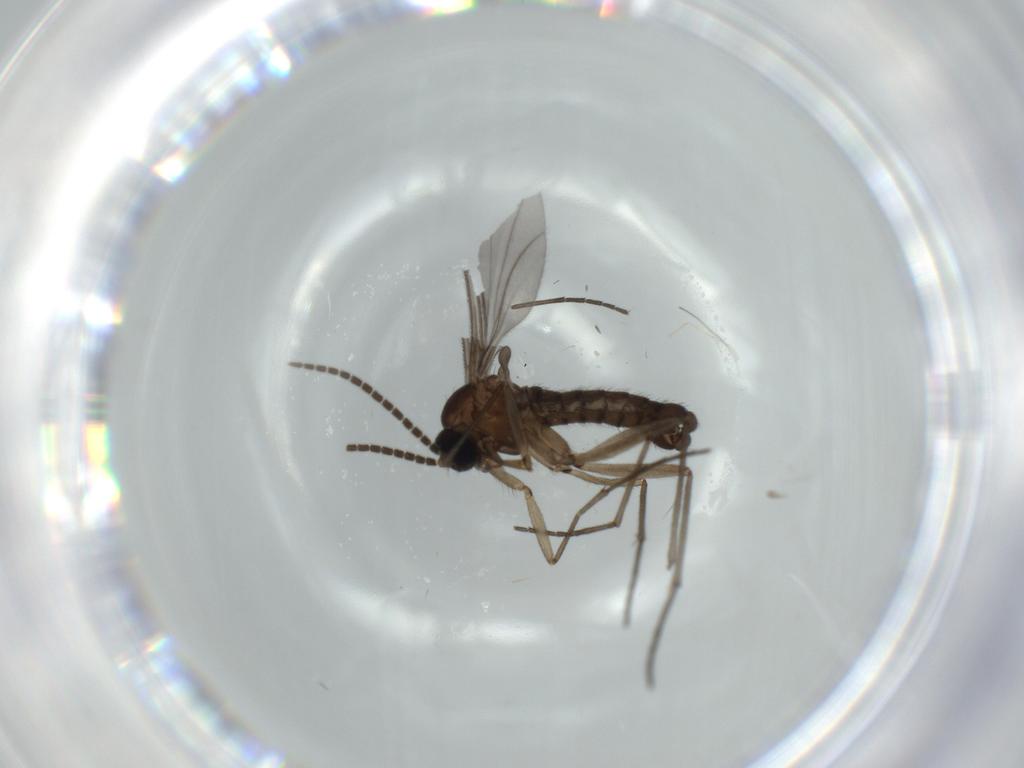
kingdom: Animalia
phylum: Arthropoda
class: Insecta
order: Diptera
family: Sciaridae
